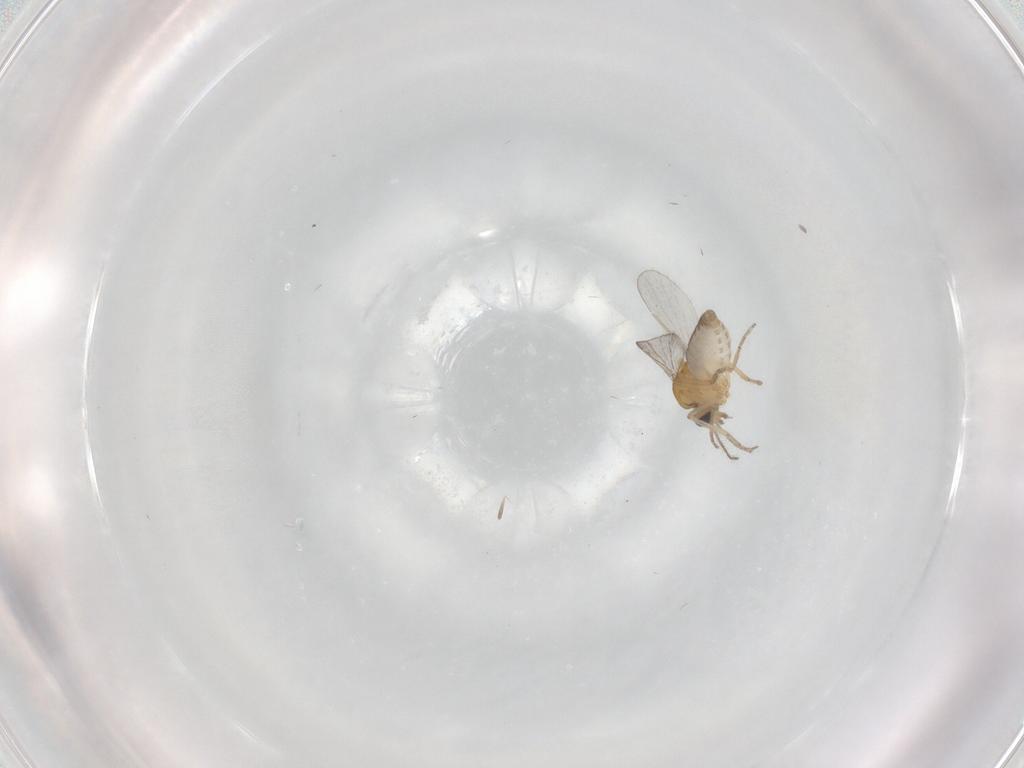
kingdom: Animalia
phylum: Arthropoda
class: Insecta
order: Diptera
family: Ceratopogonidae
